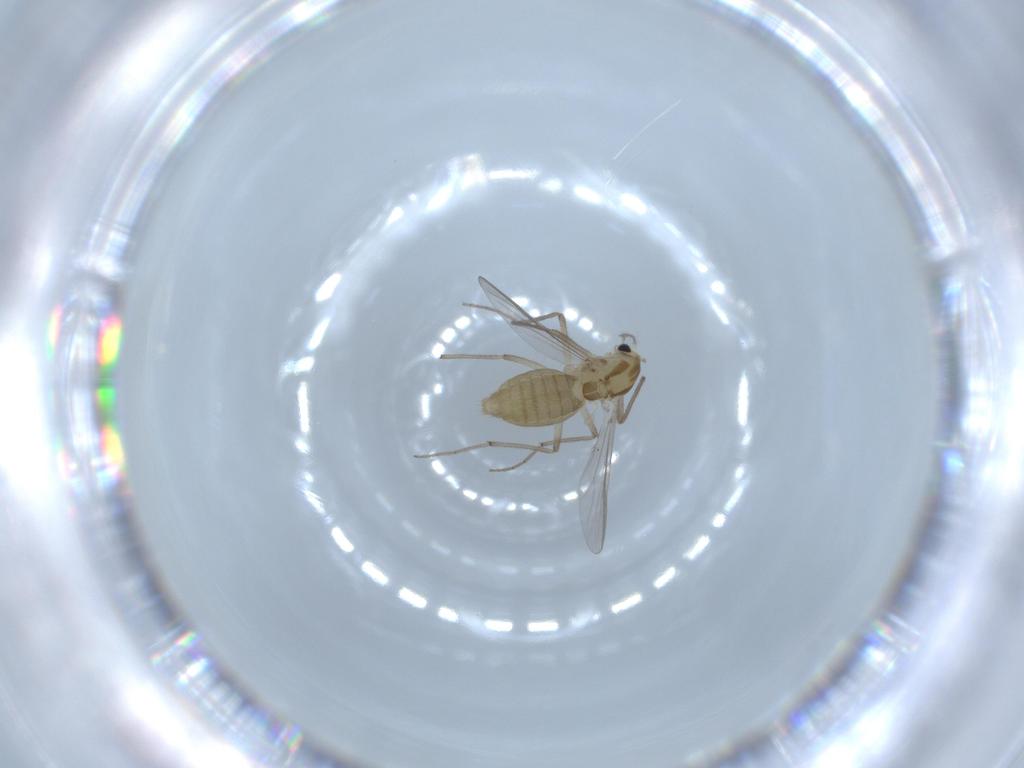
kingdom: Animalia
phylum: Arthropoda
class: Insecta
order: Diptera
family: Chironomidae
